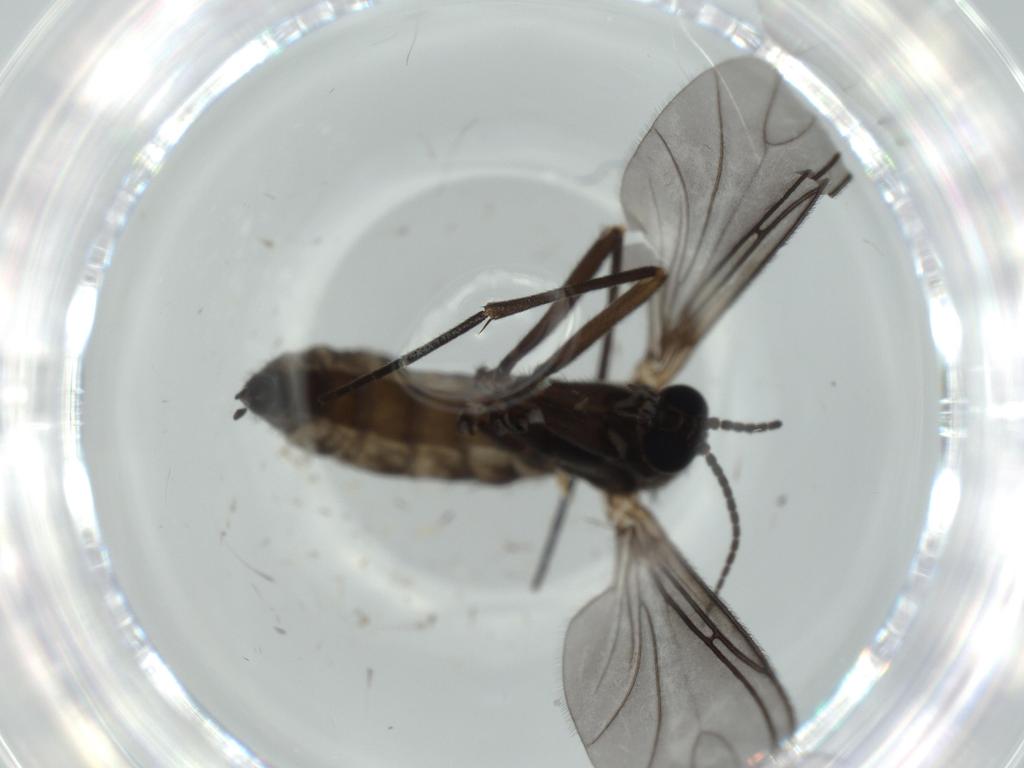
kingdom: Animalia
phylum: Arthropoda
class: Insecta
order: Diptera
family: Sciaridae
